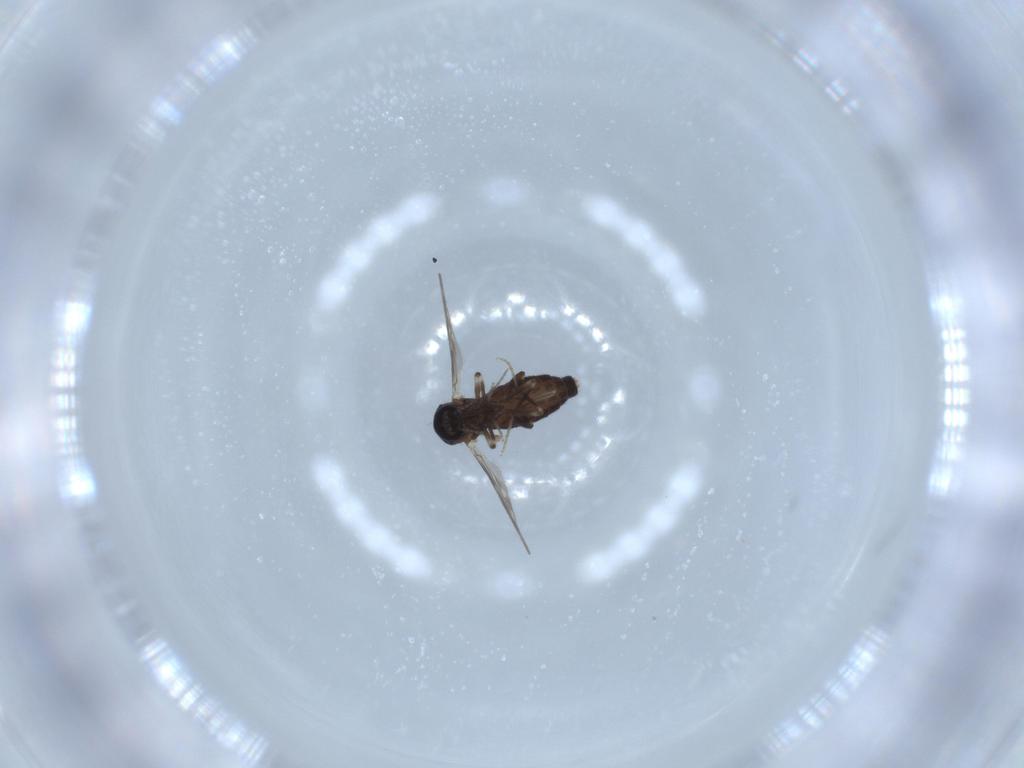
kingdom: Animalia
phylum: Arthropoda
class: Insecta
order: Diptera
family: Ceratopogonidae
